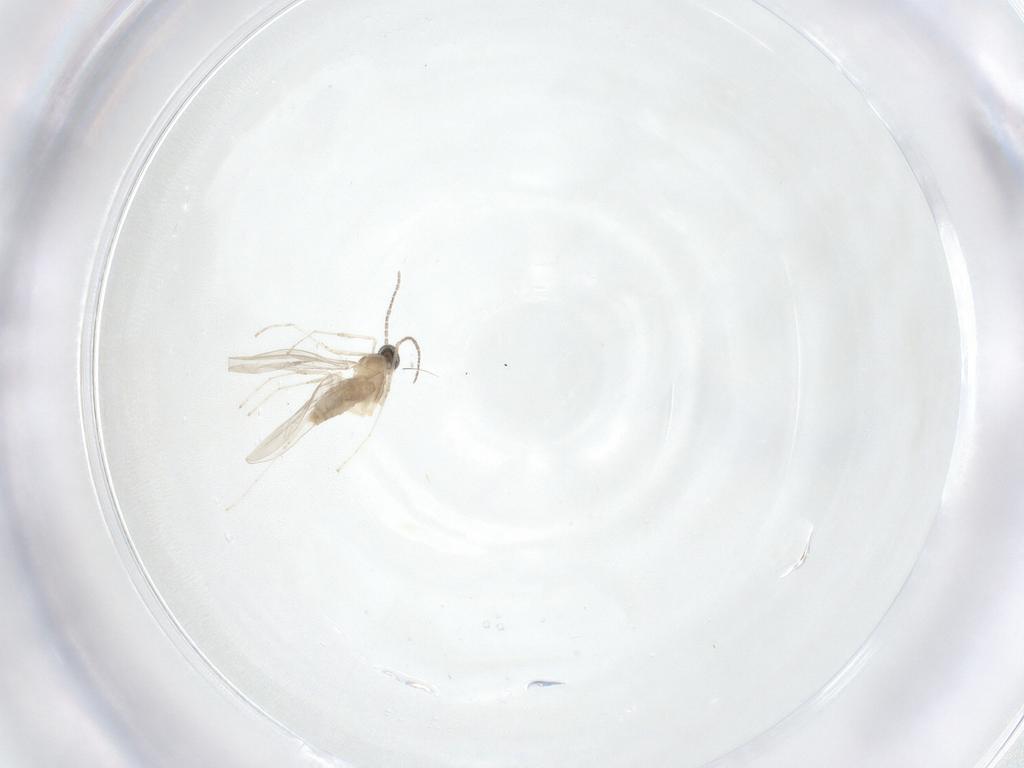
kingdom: Animalia
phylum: Arthropoda
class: Insecta
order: Diptera
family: Cecidomyiidae
